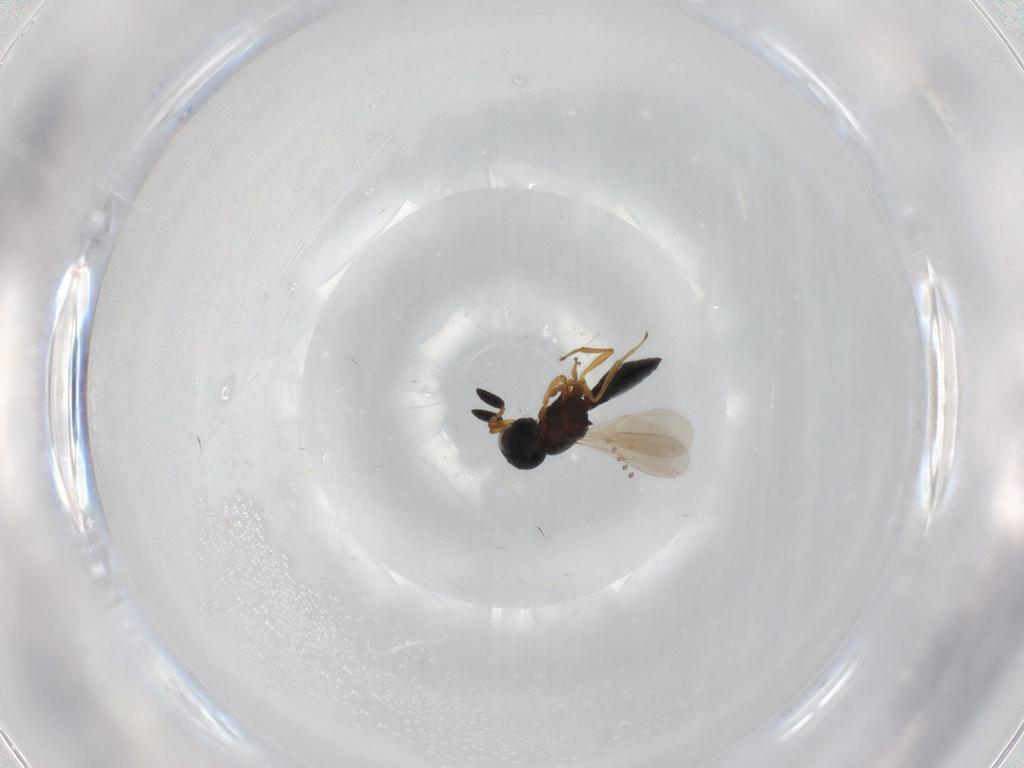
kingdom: Animalia
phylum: Arthropoda
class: Insecta
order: Hymenoptera
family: Scelionidae
